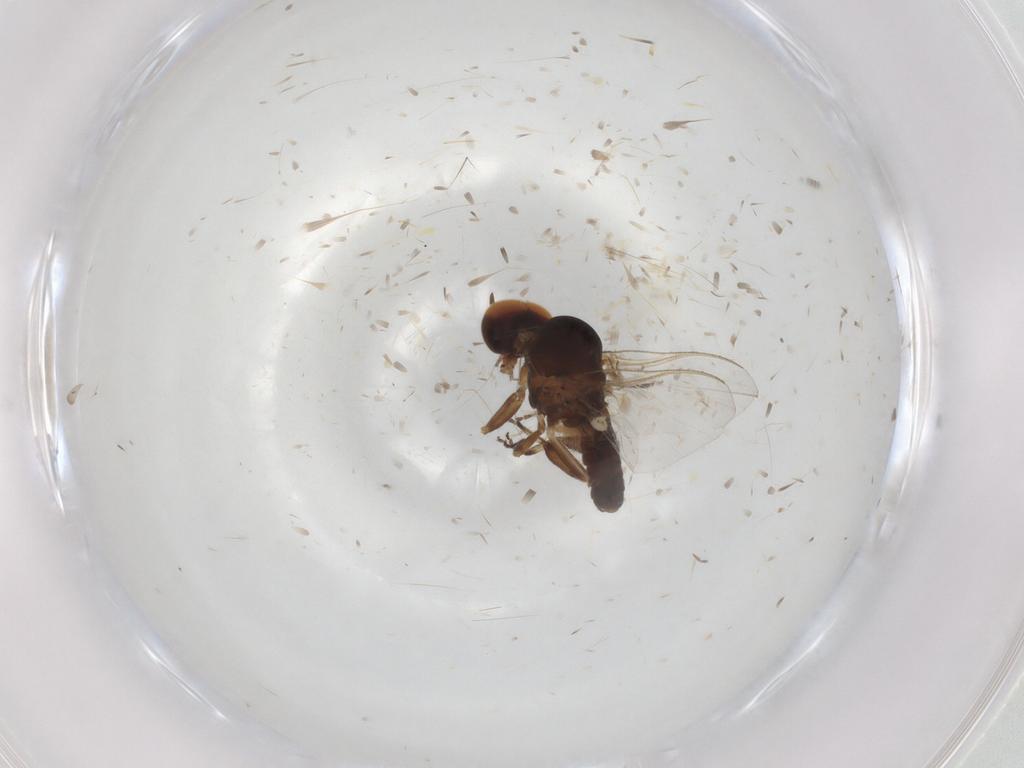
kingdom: Animalia
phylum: Arthropoda
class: Insecta
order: Diptera
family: Simuliidae
